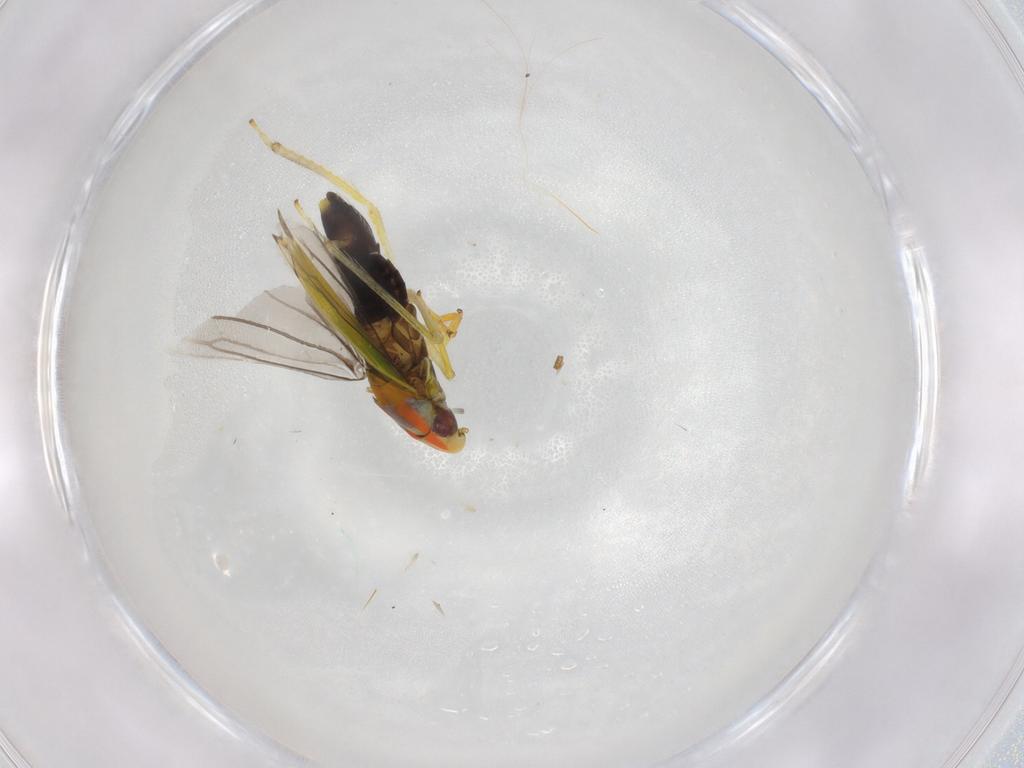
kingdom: Animalia
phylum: Arthropoda
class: Insecta
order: Hemiptera
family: Cicadellidae
